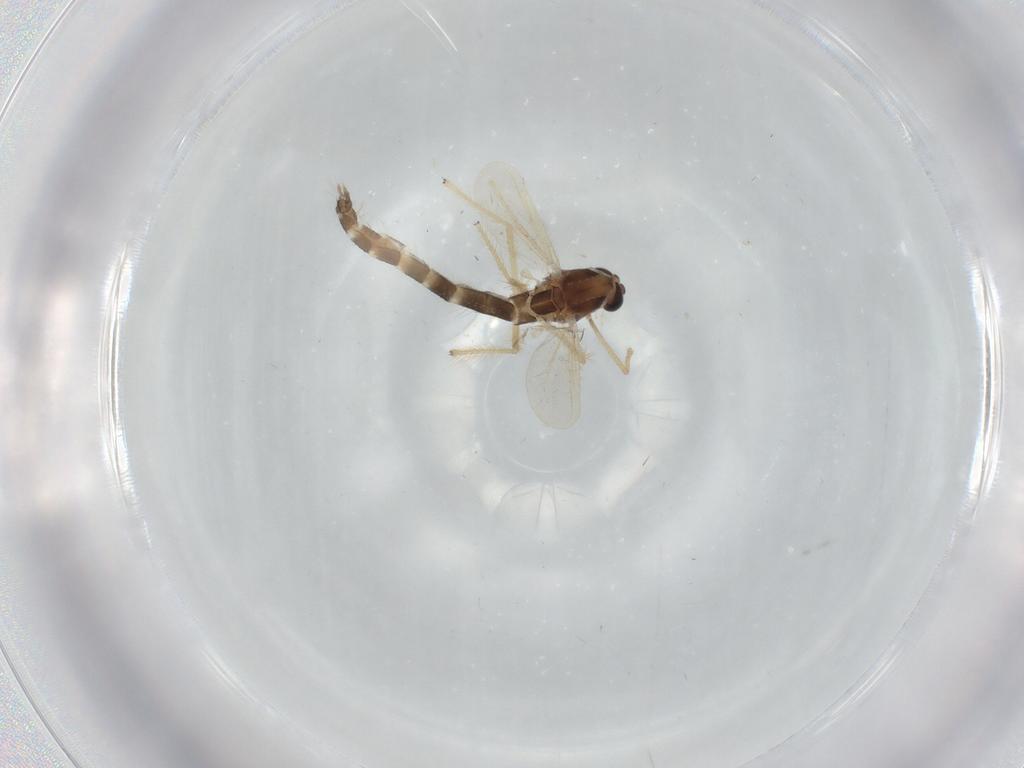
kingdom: Animalia
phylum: Arthropoda
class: Insecta
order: Diptera
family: Chironomidae
